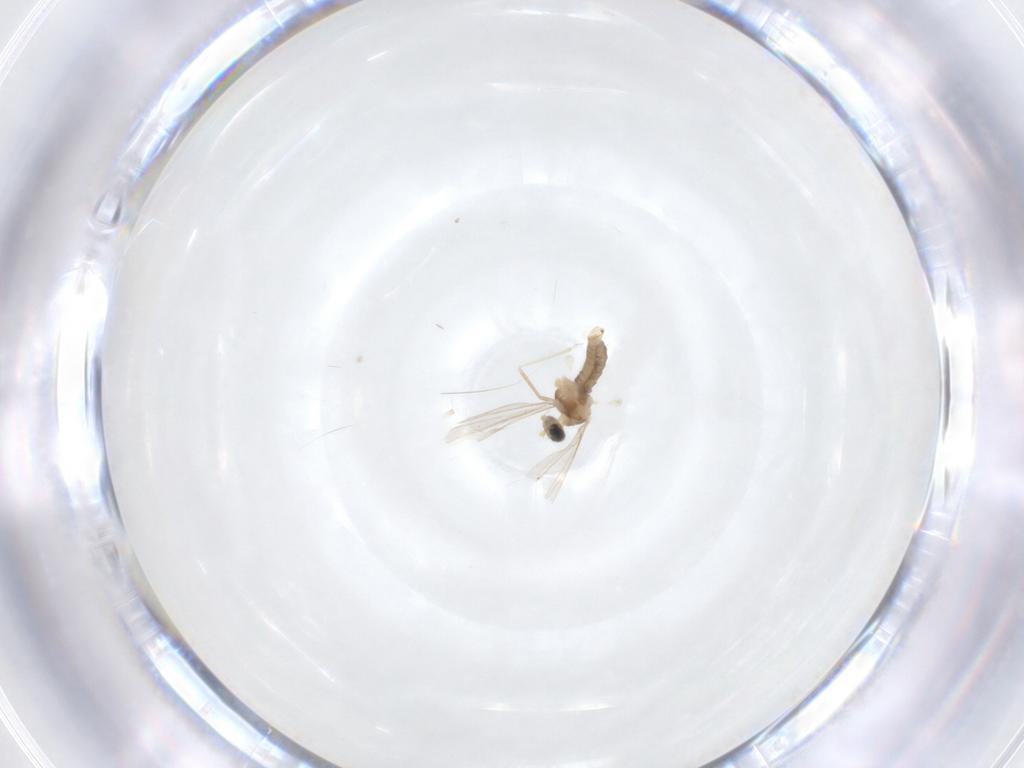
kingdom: Animalia
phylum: Arthropoda
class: Insecta
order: Diptera
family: Cecidomyiidae
